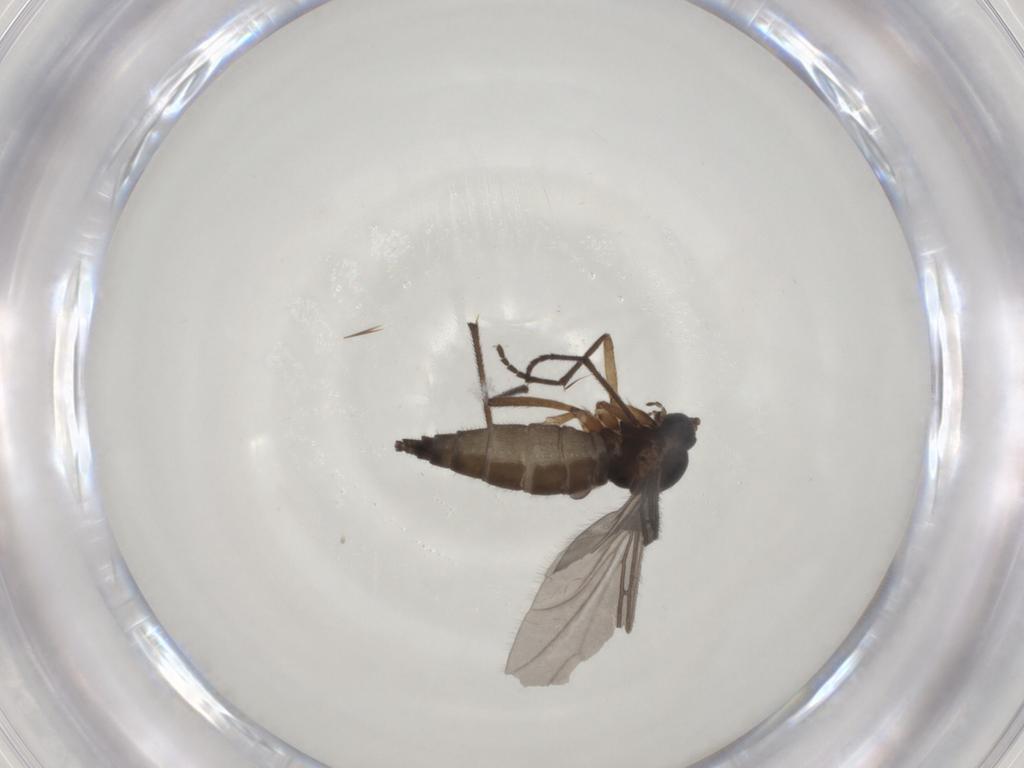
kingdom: Animalia
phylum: Arthropoda
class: Insecta
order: Diptera
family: Sciaridae
